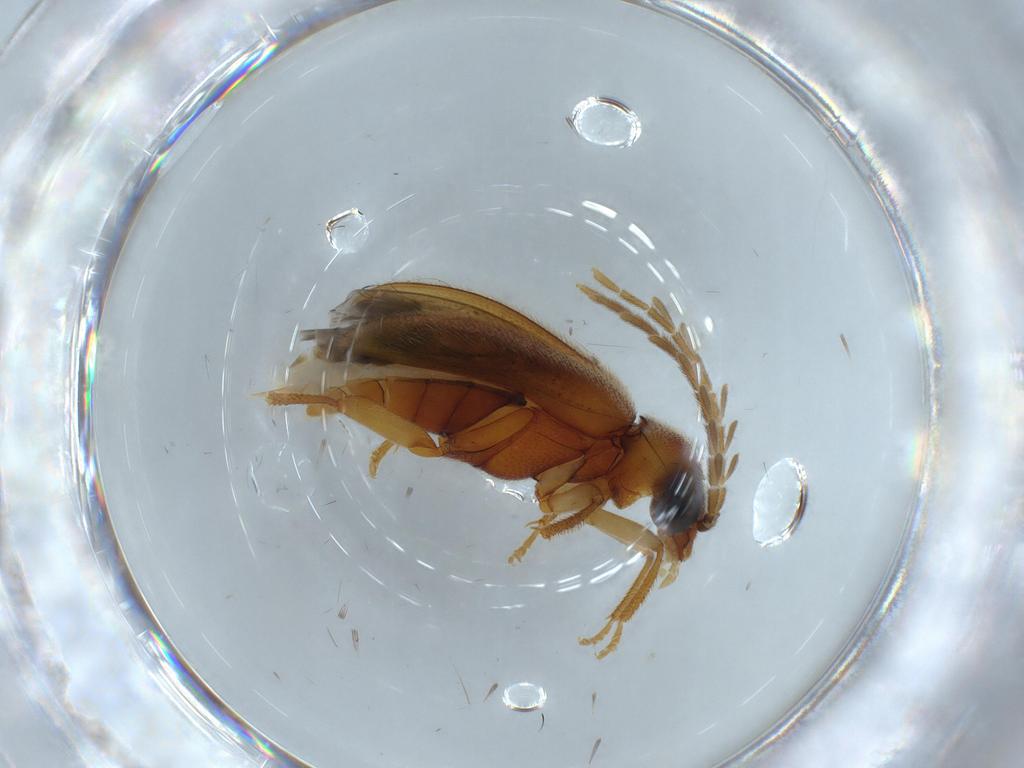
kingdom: Animalia
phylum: Arthropoda
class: Insecta
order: Coleoptera
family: Ptilodactylidae
